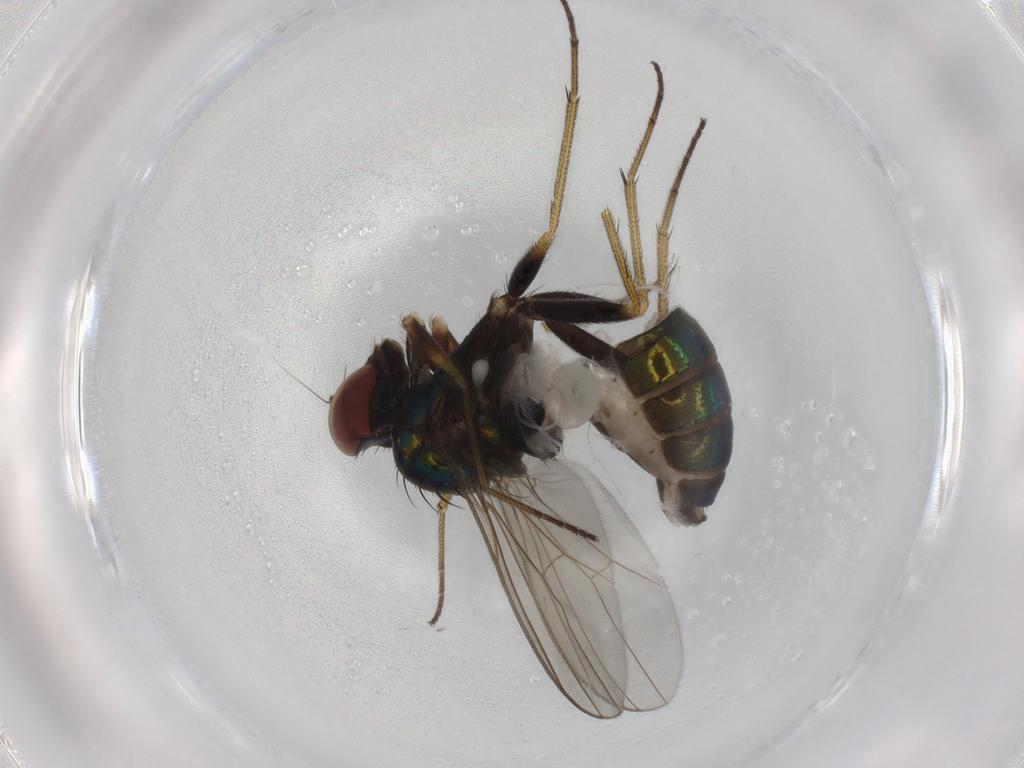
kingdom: Animalia
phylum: Arthropoda
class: Insecta
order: Diptera
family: Dolichopodidae
